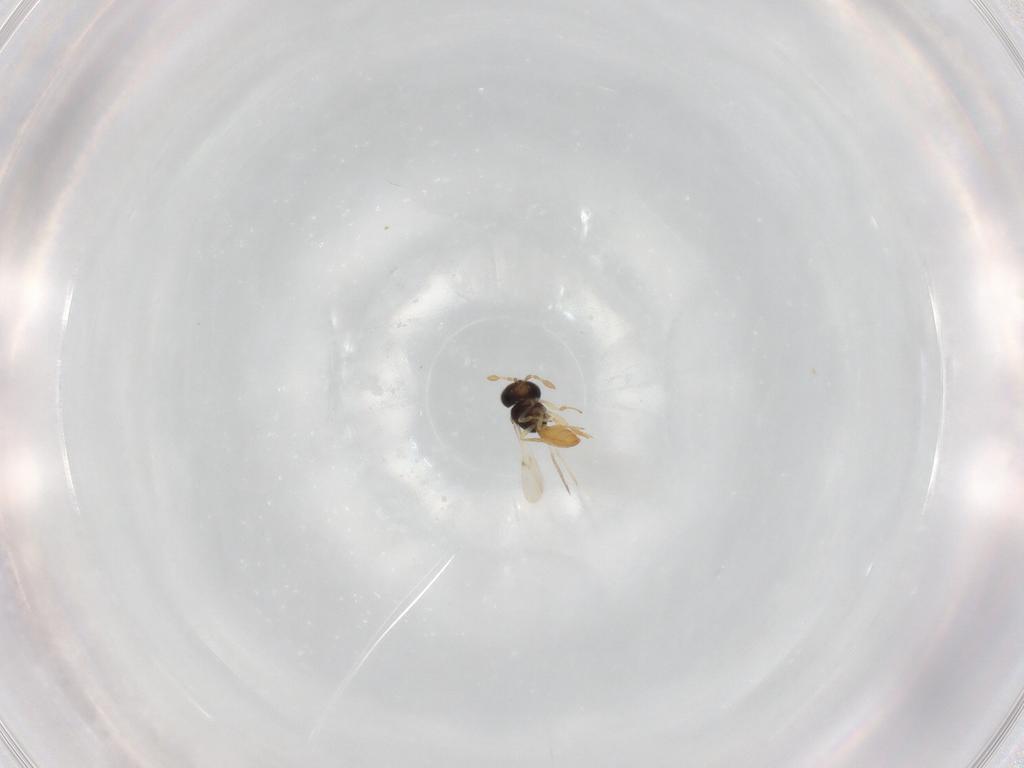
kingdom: Animalia
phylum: Arthropoda
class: Insecta
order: Hymenoptera
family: Scelionidae
